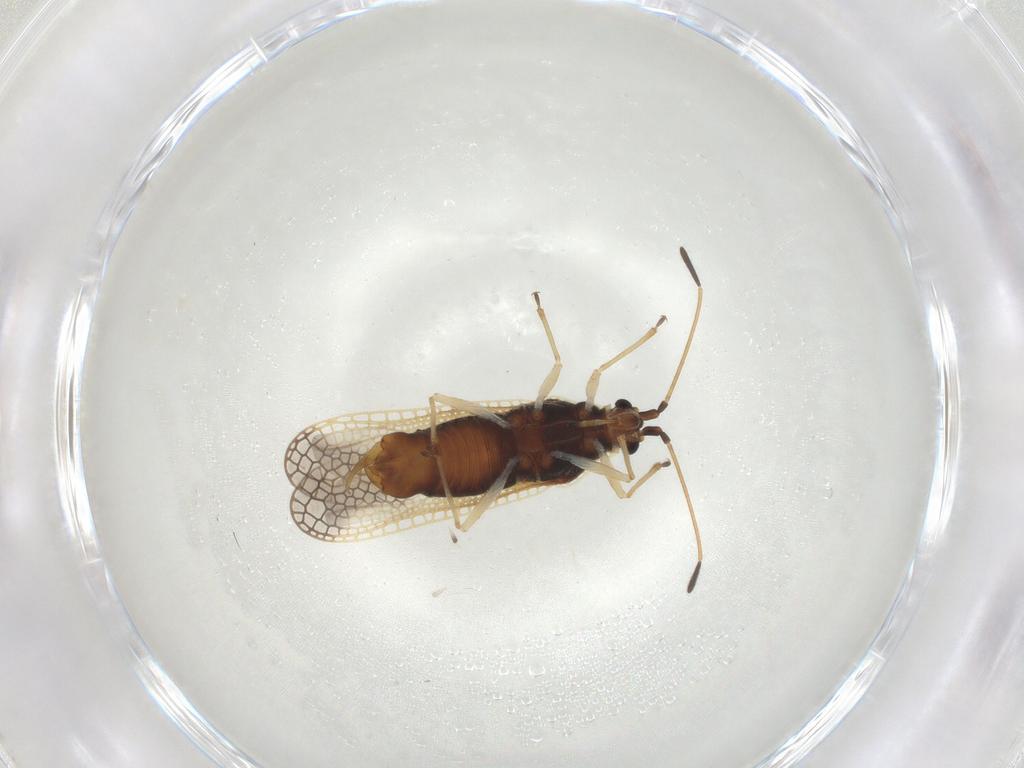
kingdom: Animalia
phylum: Arthropoda
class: Insecta
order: Hemiptera
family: Tingidae
